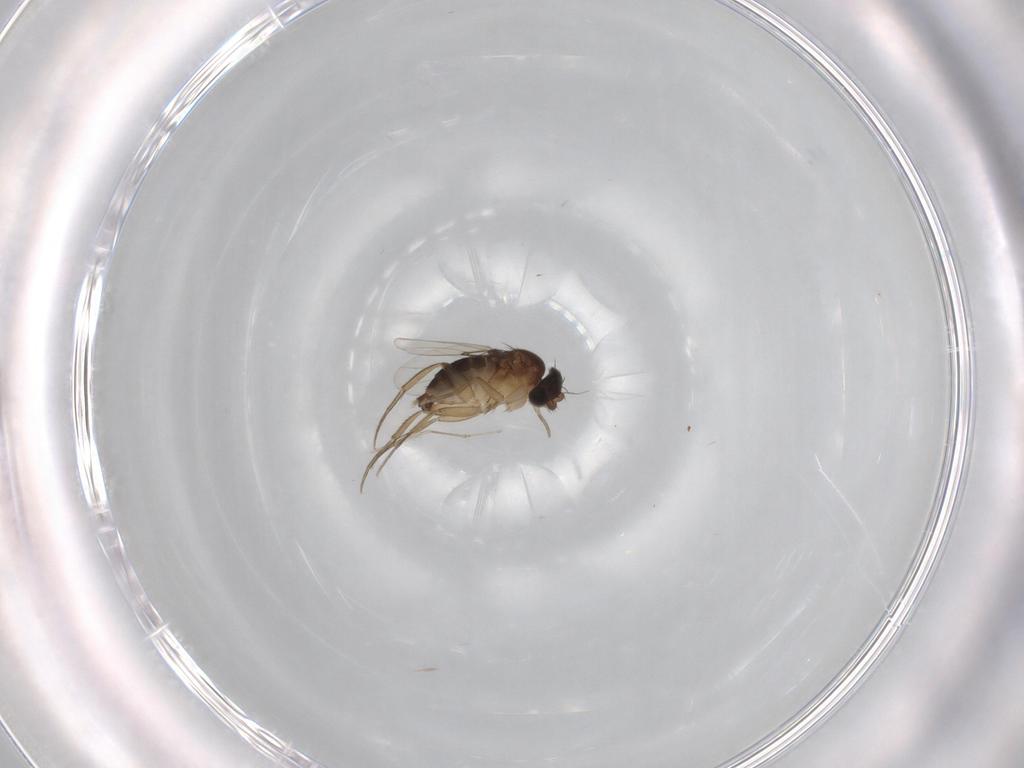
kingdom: Animalia
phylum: Arthropoda
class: Insecta
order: Diptera
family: Phoridae
